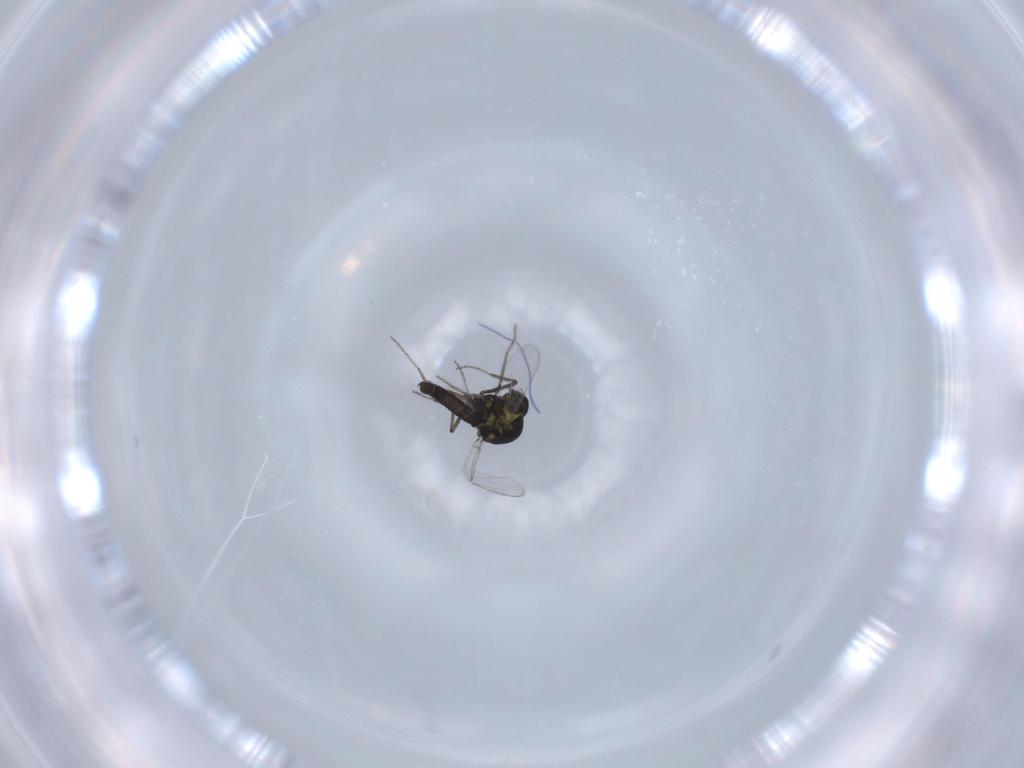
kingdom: Animalia
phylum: Arthropoda
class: Insecta
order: Diptera
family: Ceratopogonidae
